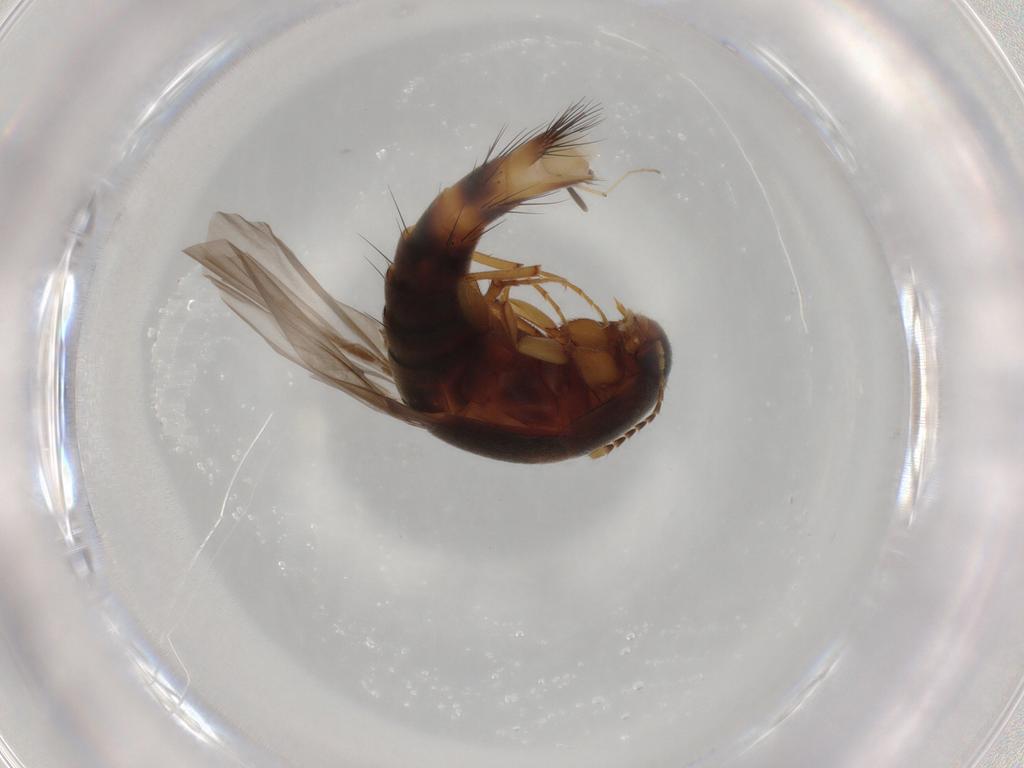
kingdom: Animalia
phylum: Arthropoda
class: Insecta
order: Coleoptera
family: Staphylinidae
